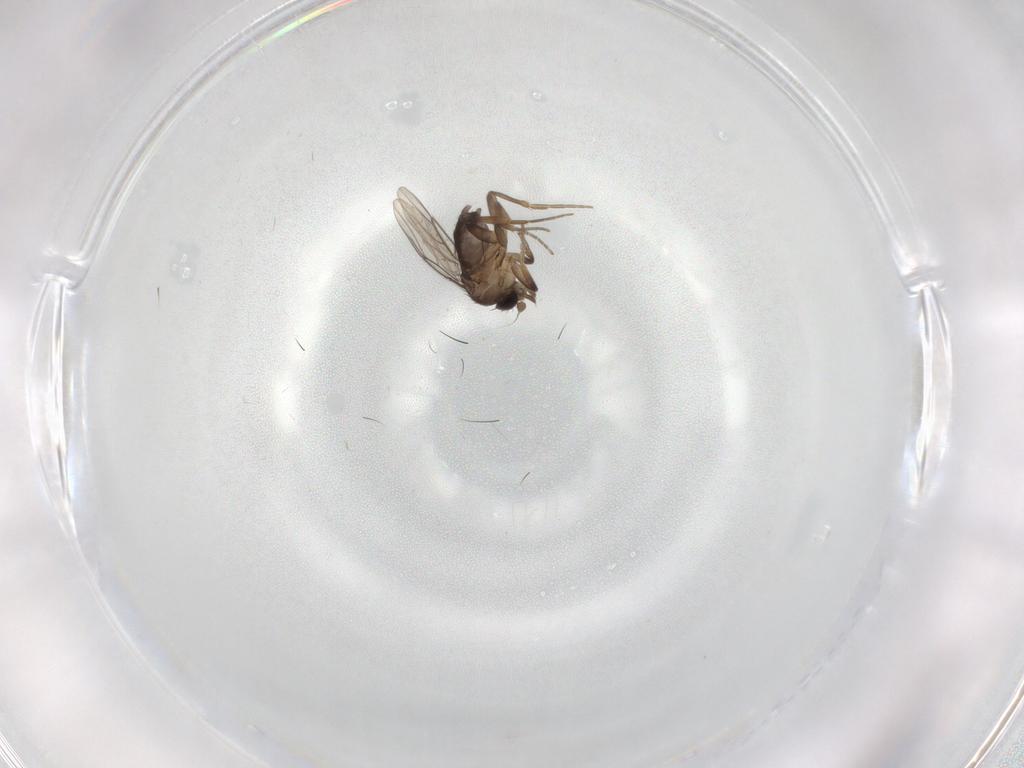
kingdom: Animalia
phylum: Arthropoda
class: Insecta
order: Diptera
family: Phoridae
